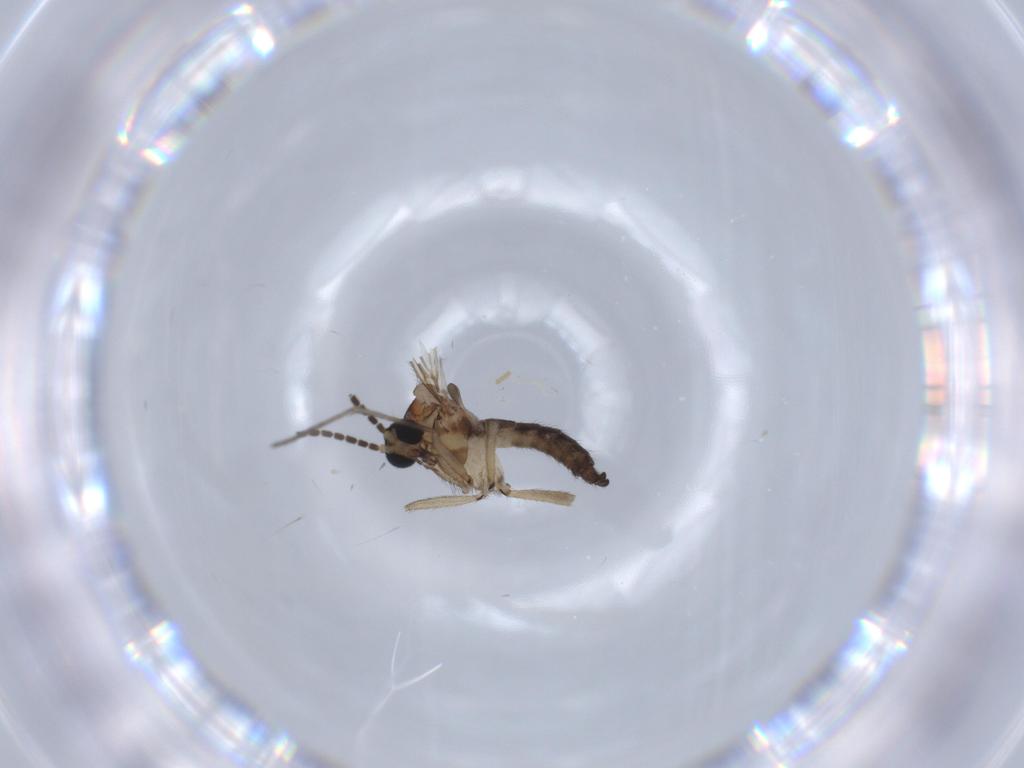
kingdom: Animalia
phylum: Arthropoda
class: Insecta
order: Diptera
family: Sciaridae
